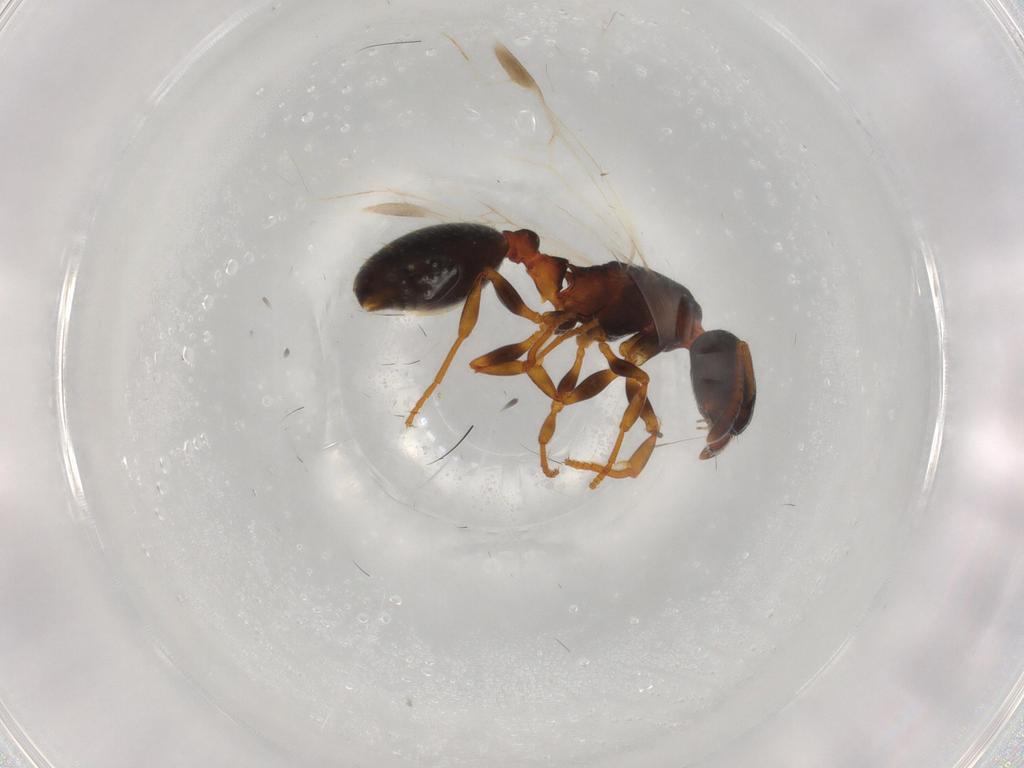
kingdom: Animalia
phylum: Arthropoda
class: Insecta
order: Hymenoptera
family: Formicidae
